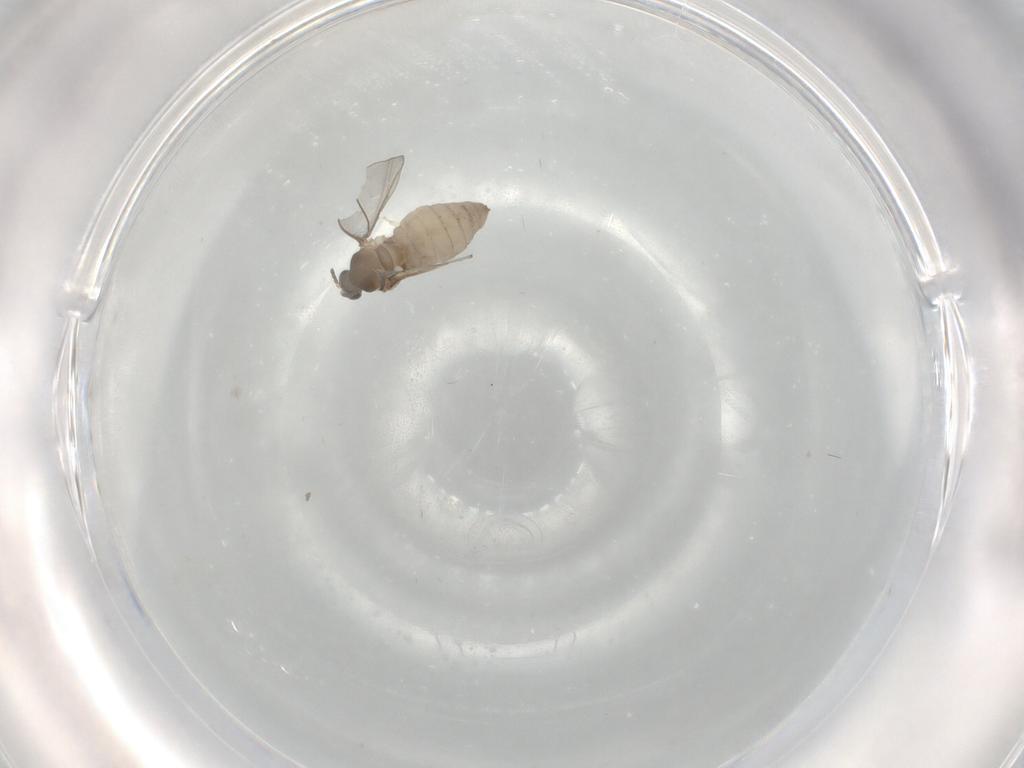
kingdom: Animalia
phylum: Arthropoda
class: Insecta
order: Diptera
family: Cecidomyiidae
